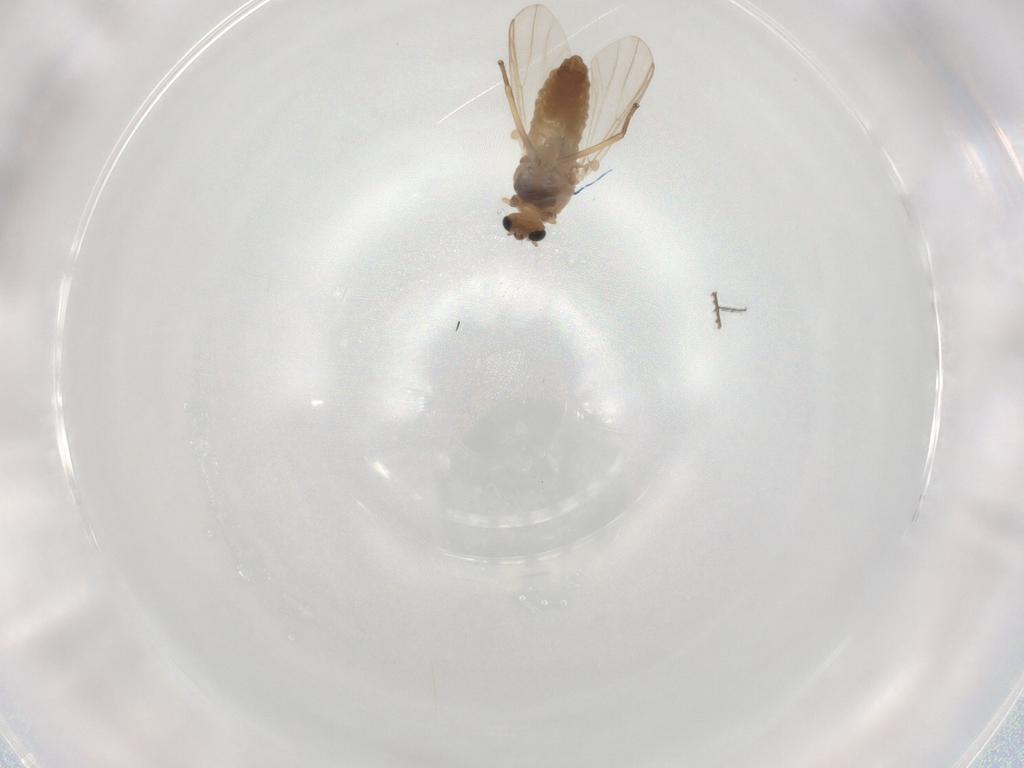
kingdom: Animalia
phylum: Arthropoda
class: Insecta
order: Diptera
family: Chironomidae
